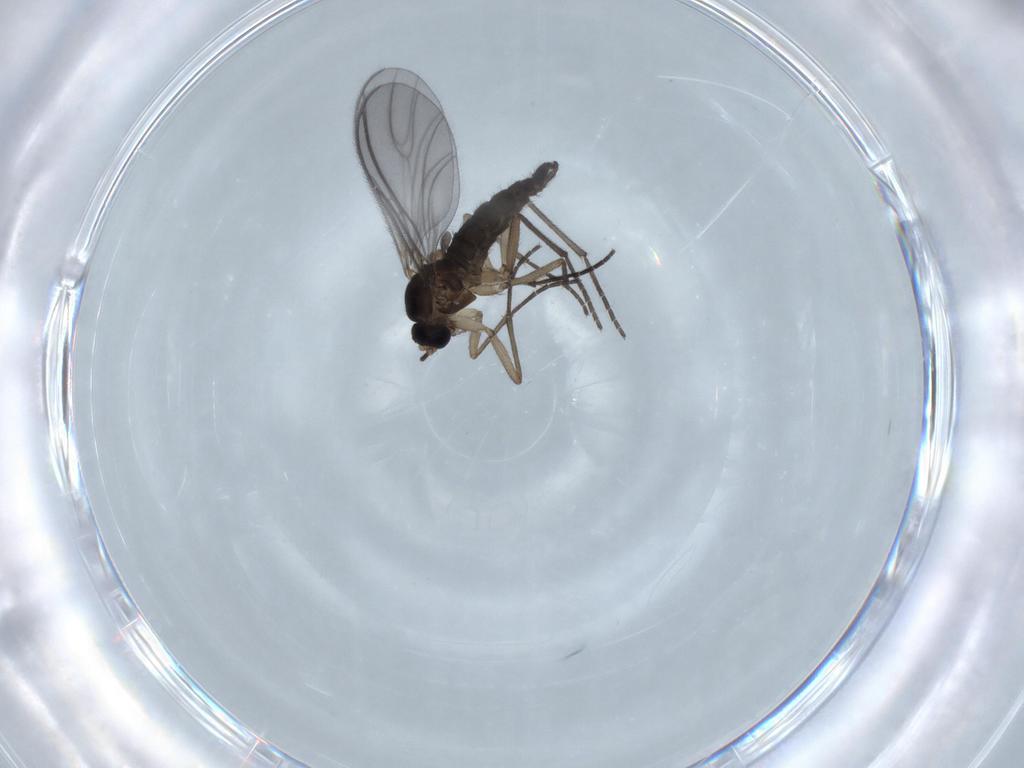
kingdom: Animalia
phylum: Arthropoda
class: Insecta
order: Diptera
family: Sciaridae
